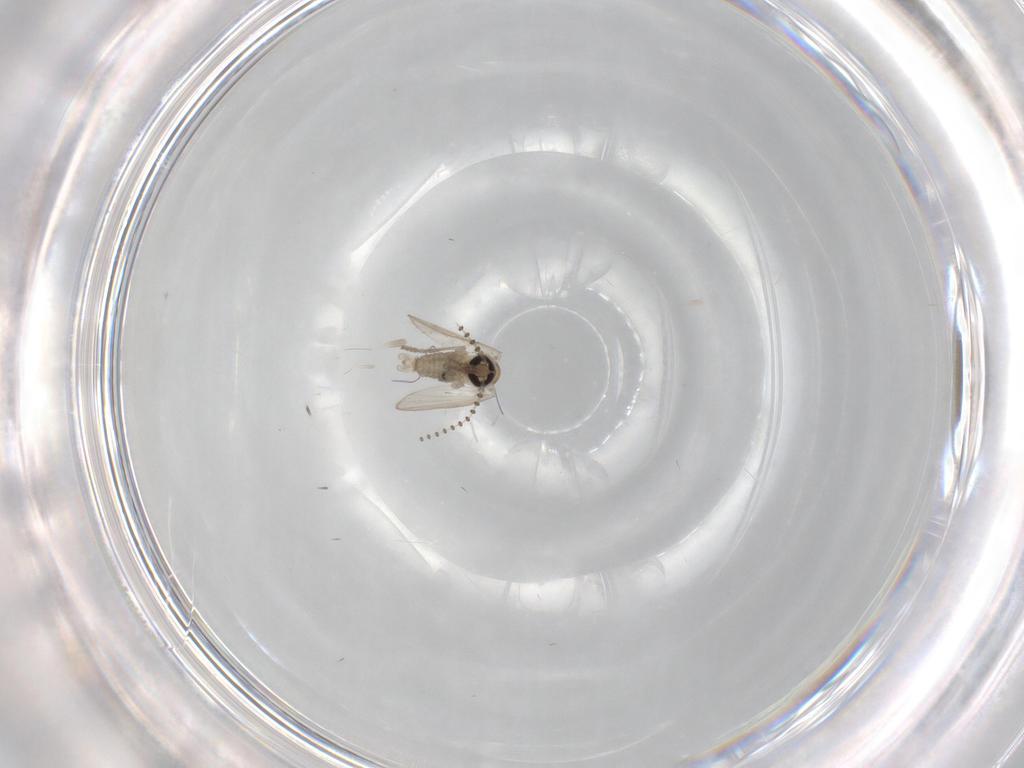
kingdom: Animalia
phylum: Arthropoda
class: Insecta
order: Diptera
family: Psychodidae
